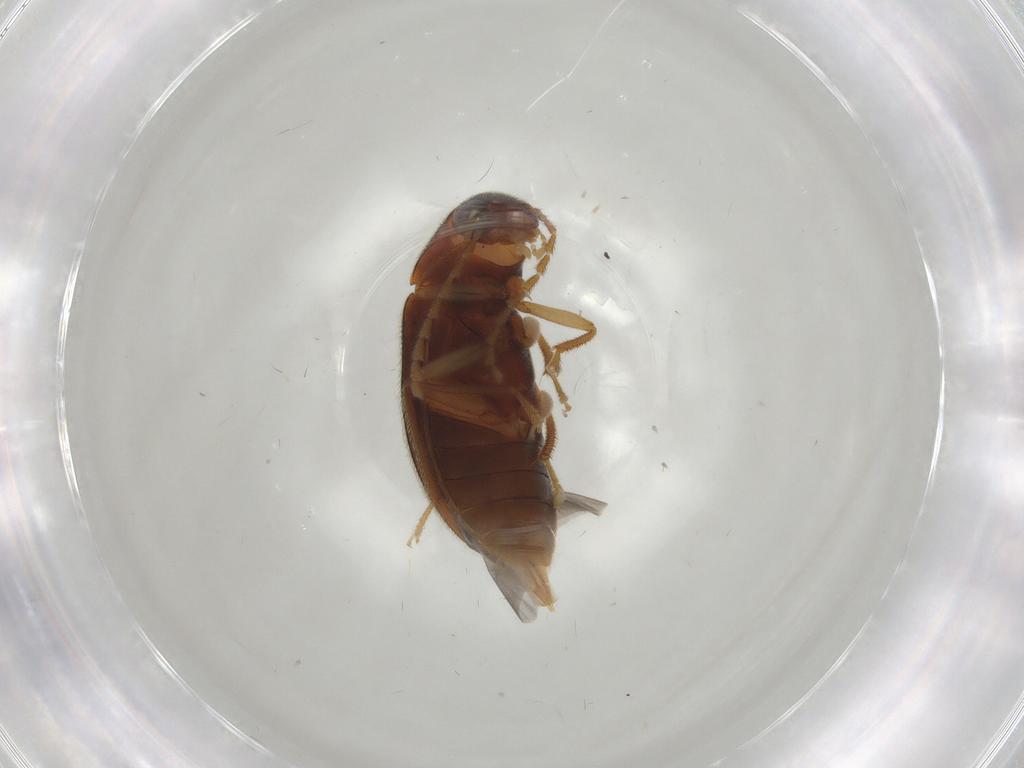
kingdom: Animalia
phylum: Arthropoda
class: Insecta
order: Coleoptera
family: Ptilodactylidae
